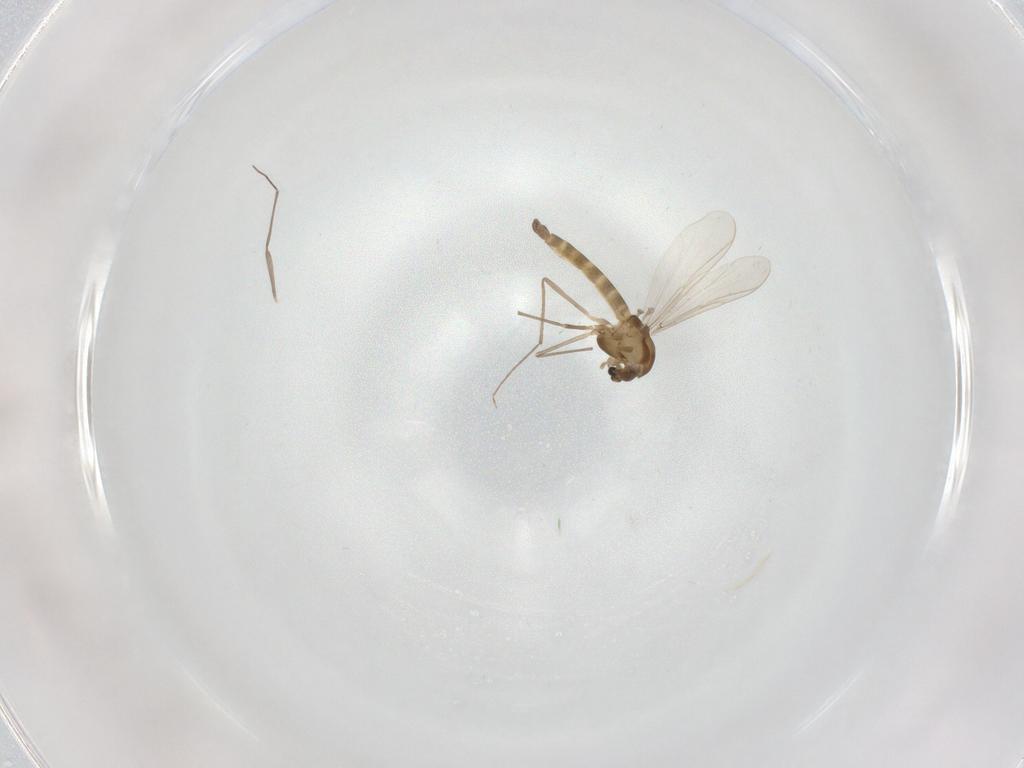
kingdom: Animalia
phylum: Arthropoda
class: Insecta
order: Diptera
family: Chironomidae
